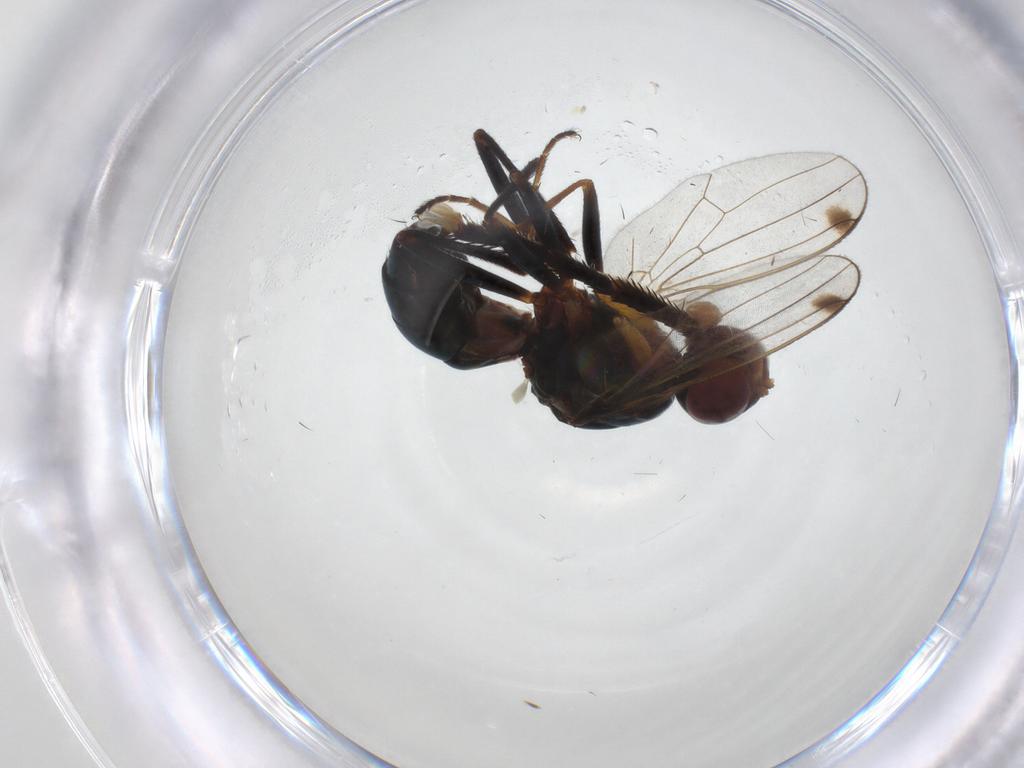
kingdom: Animalia
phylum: Arthropoda
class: Insecta
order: Diptera
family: Sepsidae
